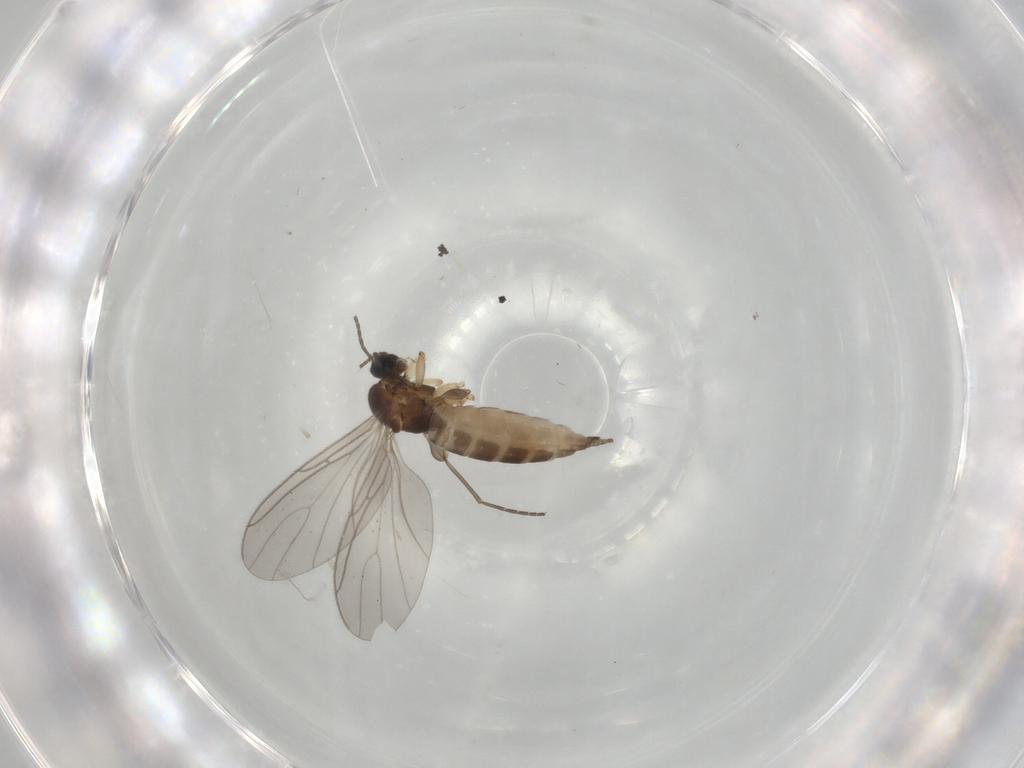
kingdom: Animalia
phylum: Arthropoda
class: Insecta
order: Diptera
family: Sciaridae
